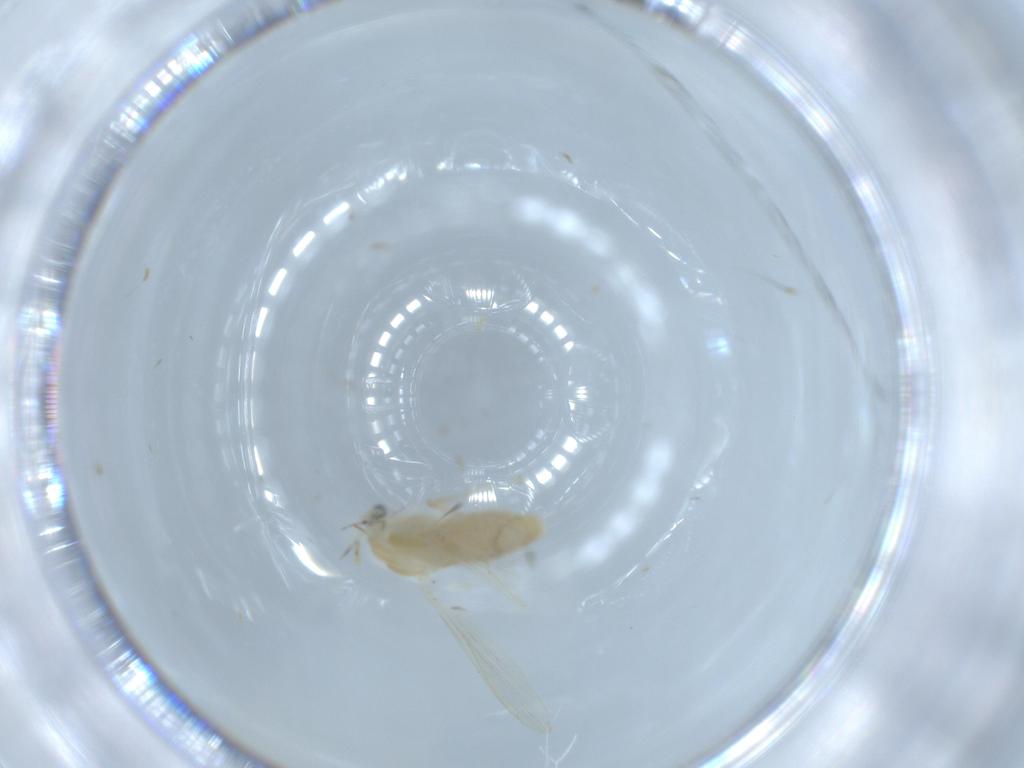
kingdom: Animalia
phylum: Arthropoda
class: Insecta
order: Diptera
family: Chironomidae
